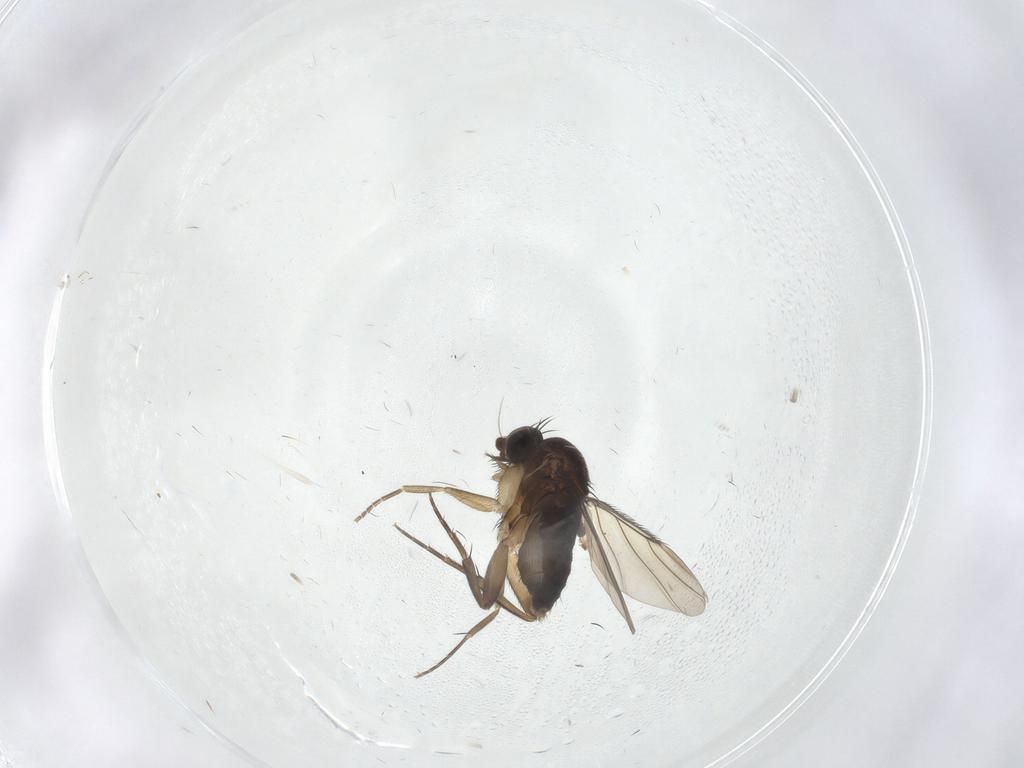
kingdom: Animalia
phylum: Arthropoda
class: Insecta
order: Diptera
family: Phoridae
